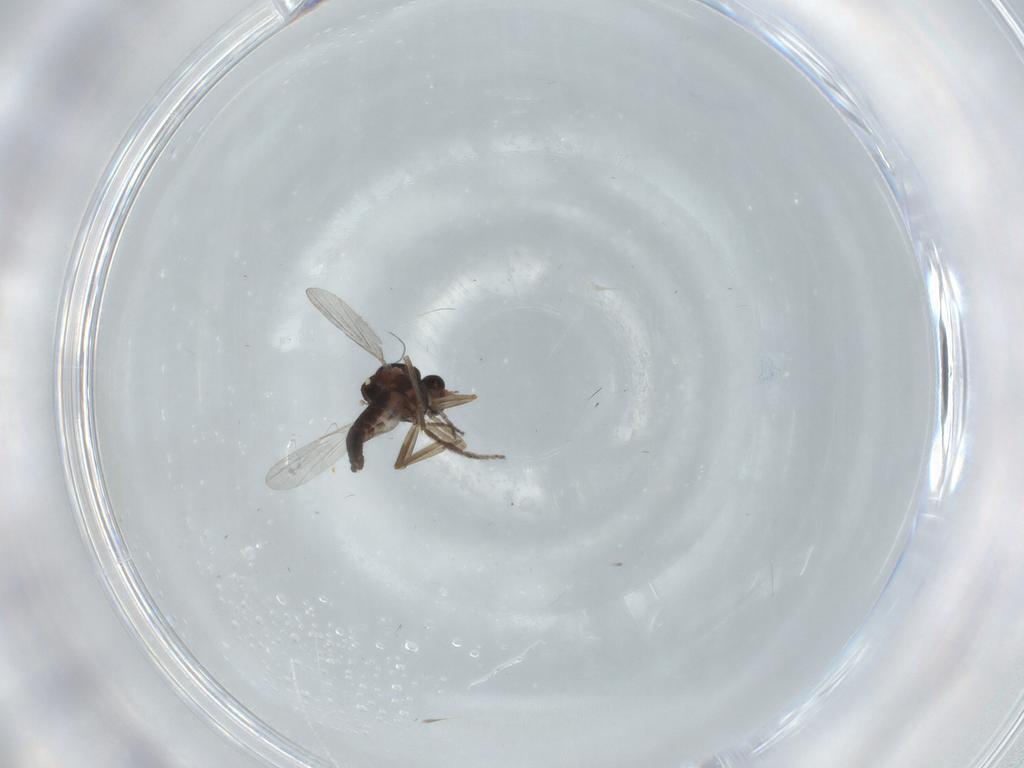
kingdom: Animalia
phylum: Arthropoda
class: Insecta
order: Diptera
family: Ceratopogonidae
